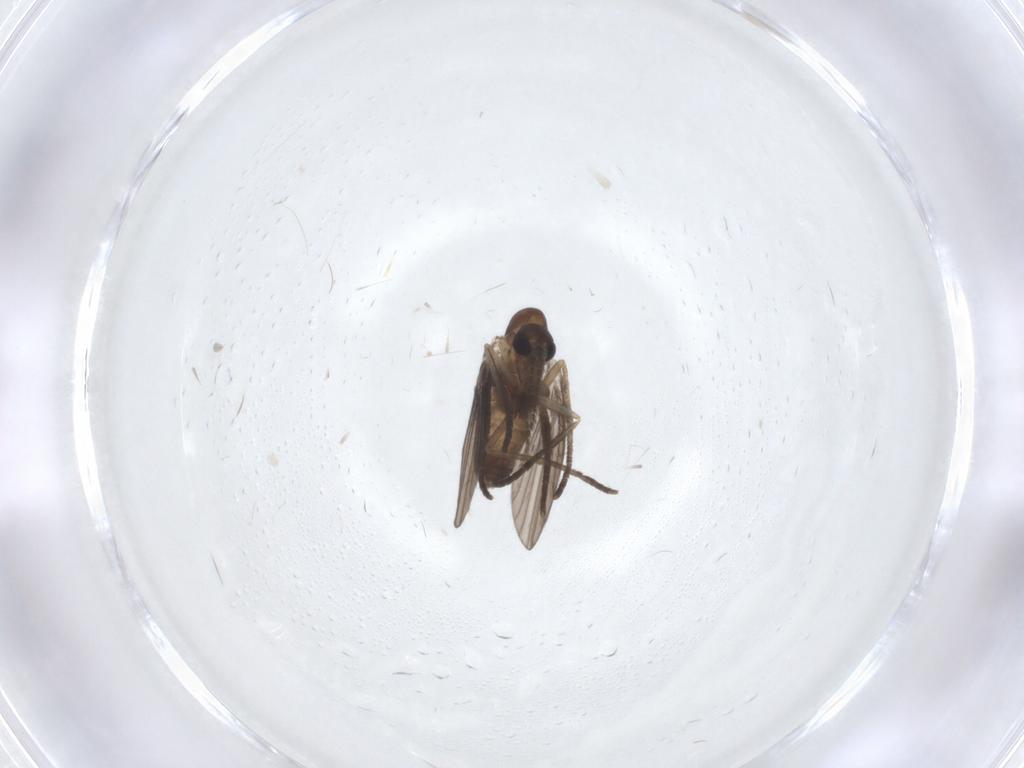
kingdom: Animalia
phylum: Arthropoda
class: Insecta
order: Diptera
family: Psychodidae
